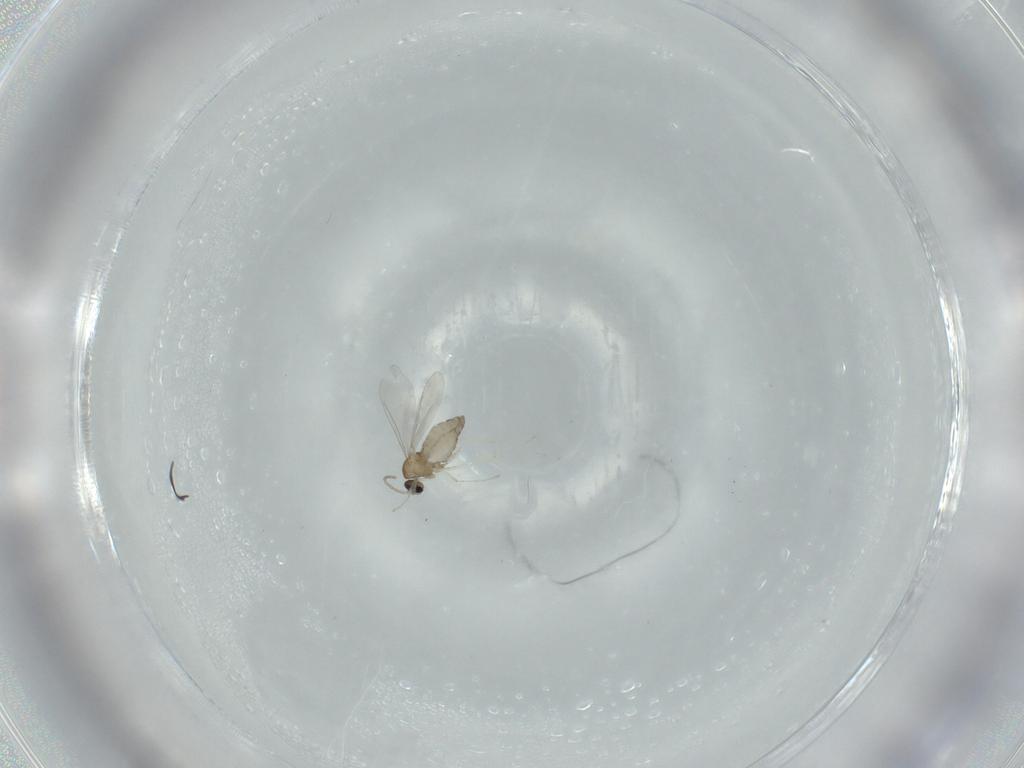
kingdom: Animalia
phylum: Arthropoda
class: Insecta
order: Diptera
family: Cecidomyiidae
